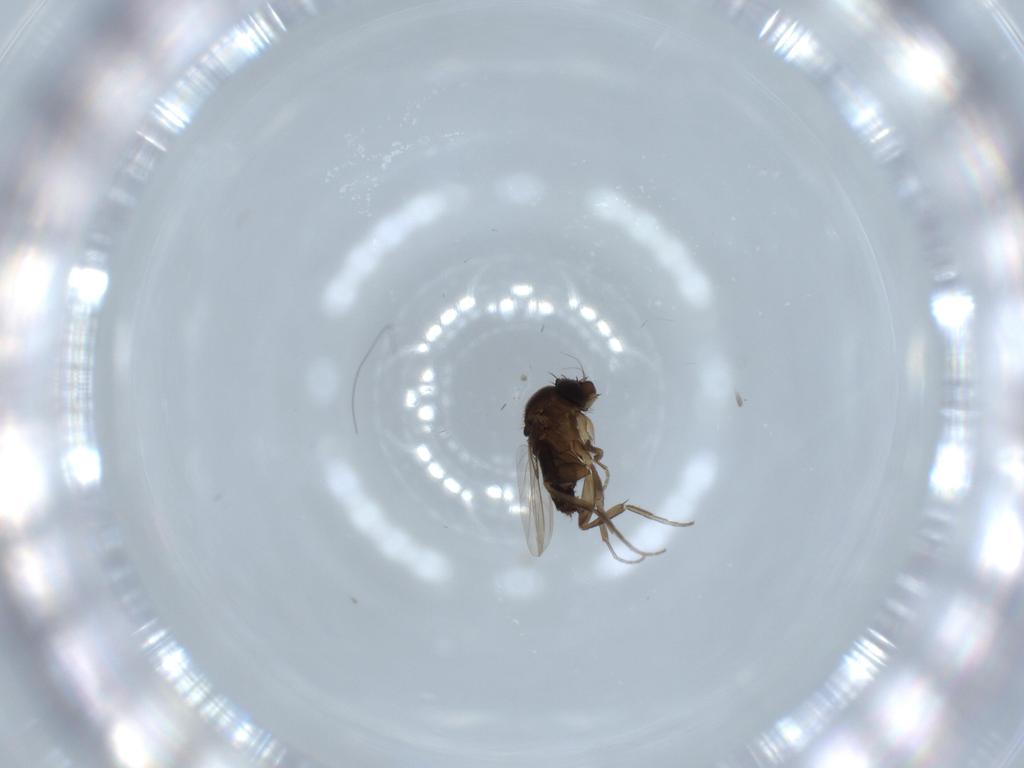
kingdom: Animalia
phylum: Arthropoda
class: Insecta
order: Diptera
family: Phoridae
